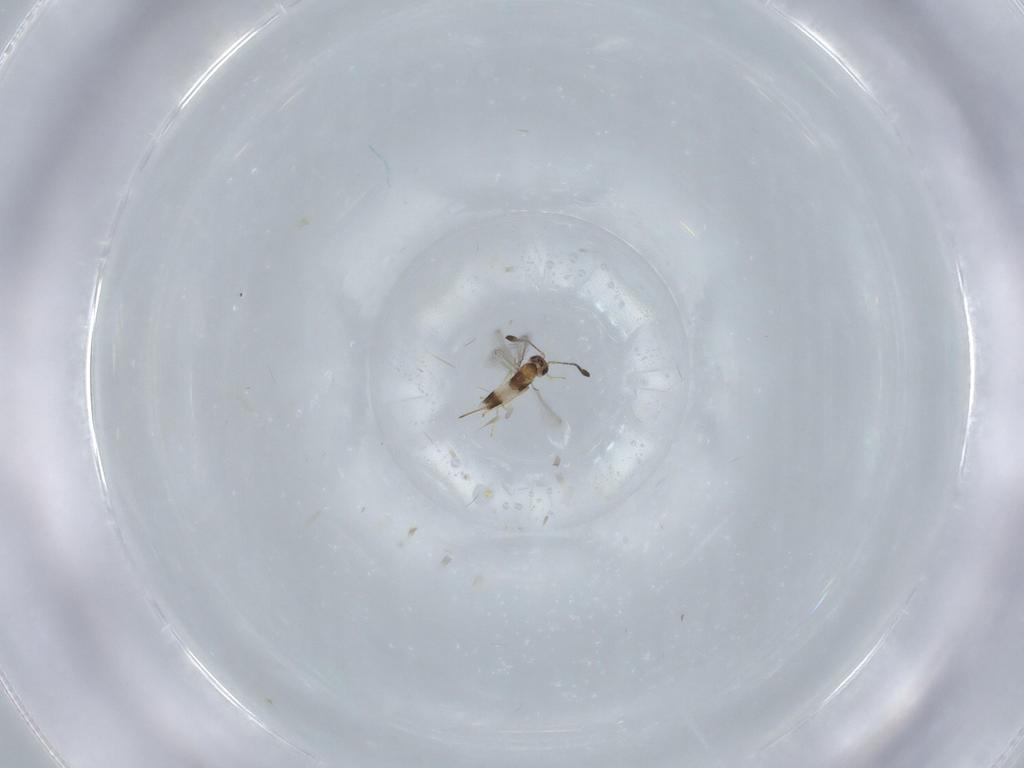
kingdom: Animalia
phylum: Arthropoda
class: Insecta
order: Hymenoptera
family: Mymaridae
